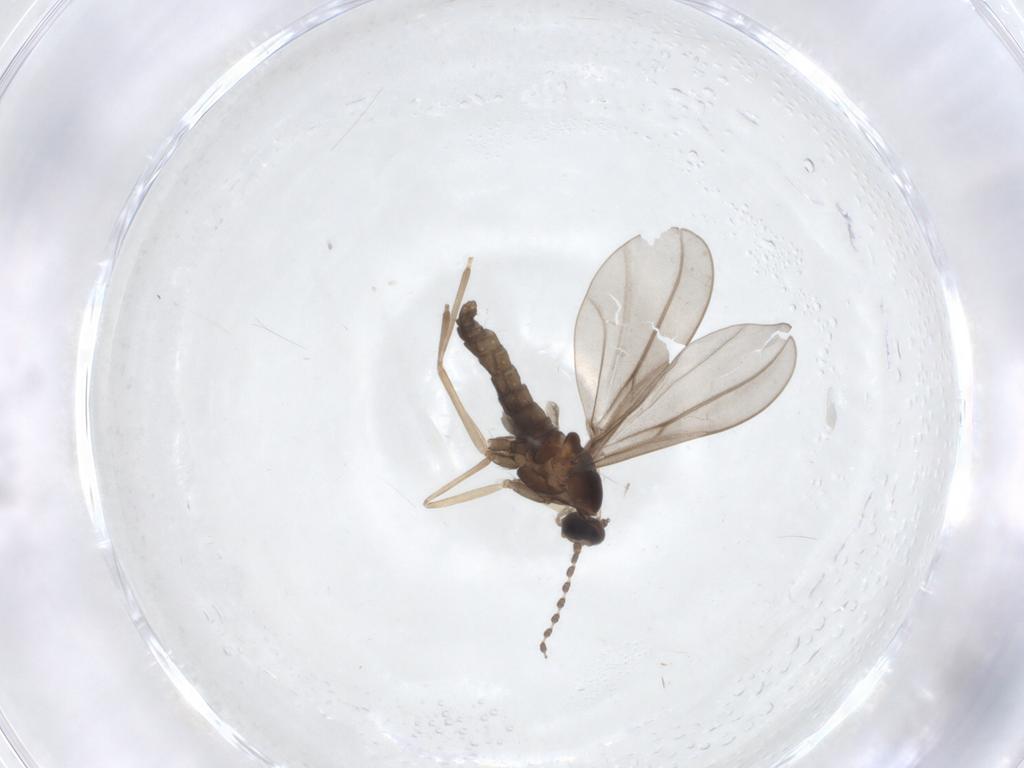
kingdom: Animalia
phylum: Arthropoda
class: Insecta
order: Diptera
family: Cecidomyiidae
